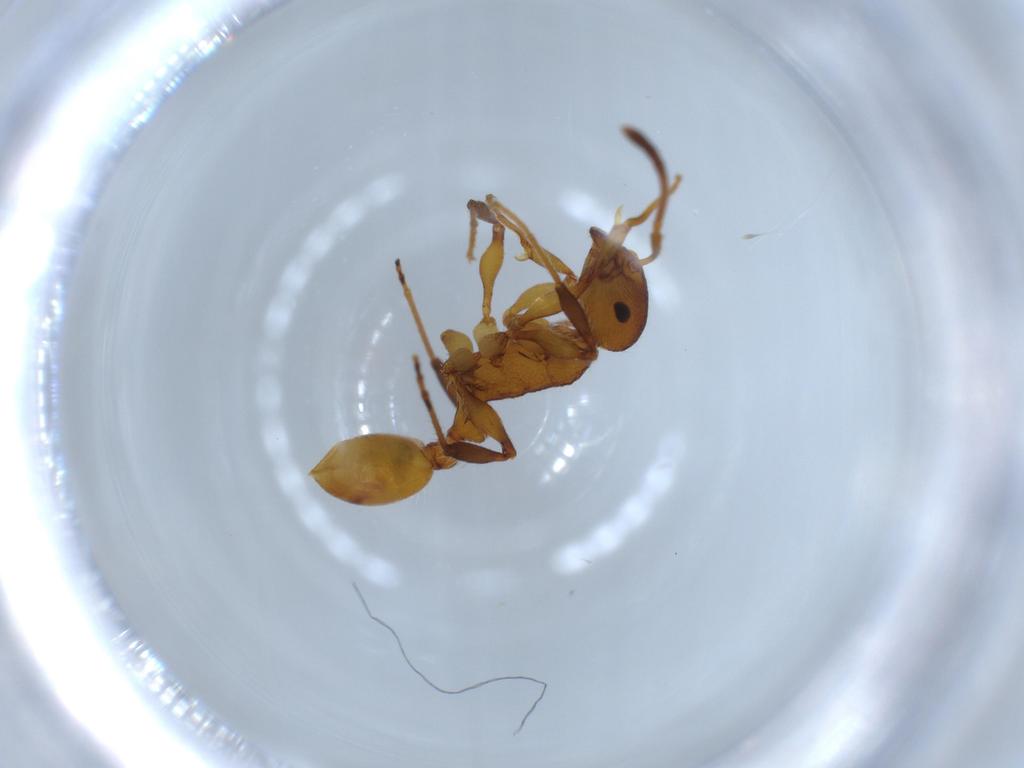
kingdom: Animalia
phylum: Arthropoda
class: Insecta
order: Hymenoptera
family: Formicidae
